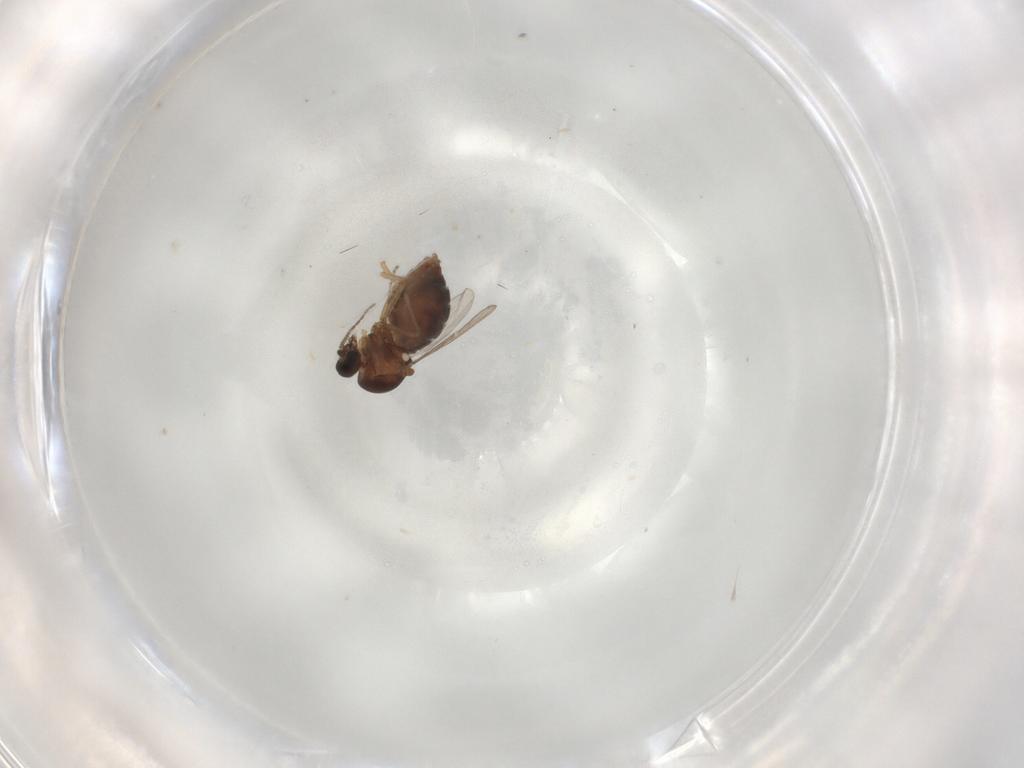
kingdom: Animalia
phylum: Arthropoda
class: Insecta
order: Diptera
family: Ceratopogonidae
